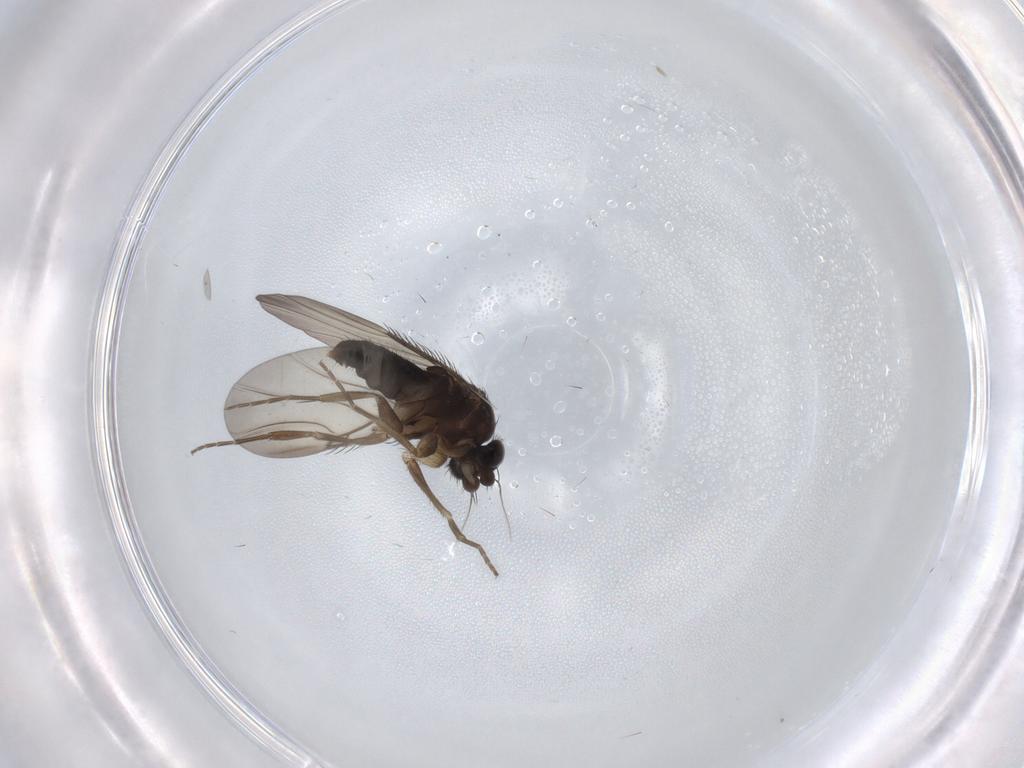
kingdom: Animalia
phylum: Arthropoda
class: Insecta
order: Diptera
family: Phoridae
